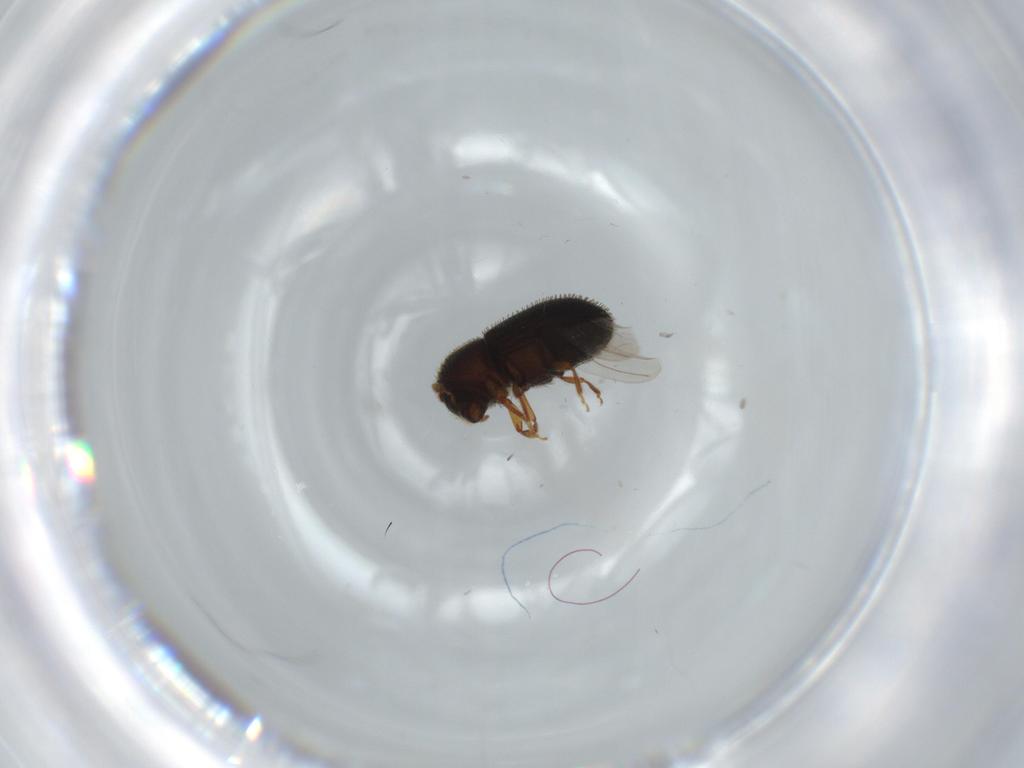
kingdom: Animalia
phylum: Arthropoda
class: Insecta
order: Coleoptera
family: Curculionidae
